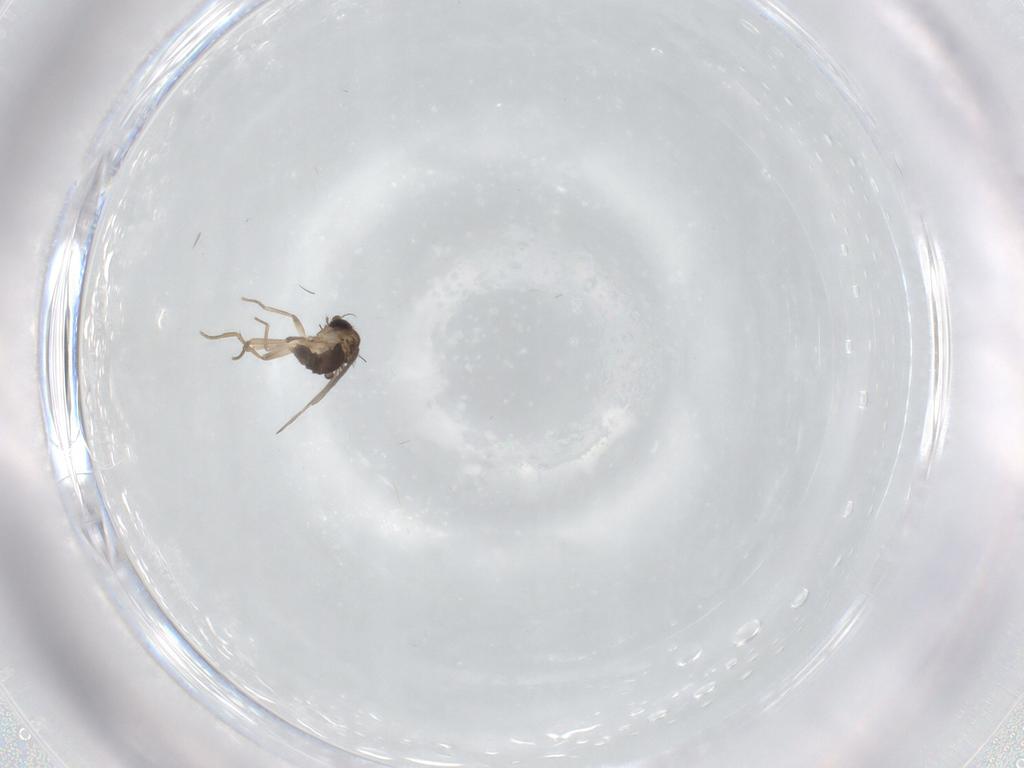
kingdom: Animalia
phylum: Arthropoda
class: Insecta
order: Diptera
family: Phoridae
